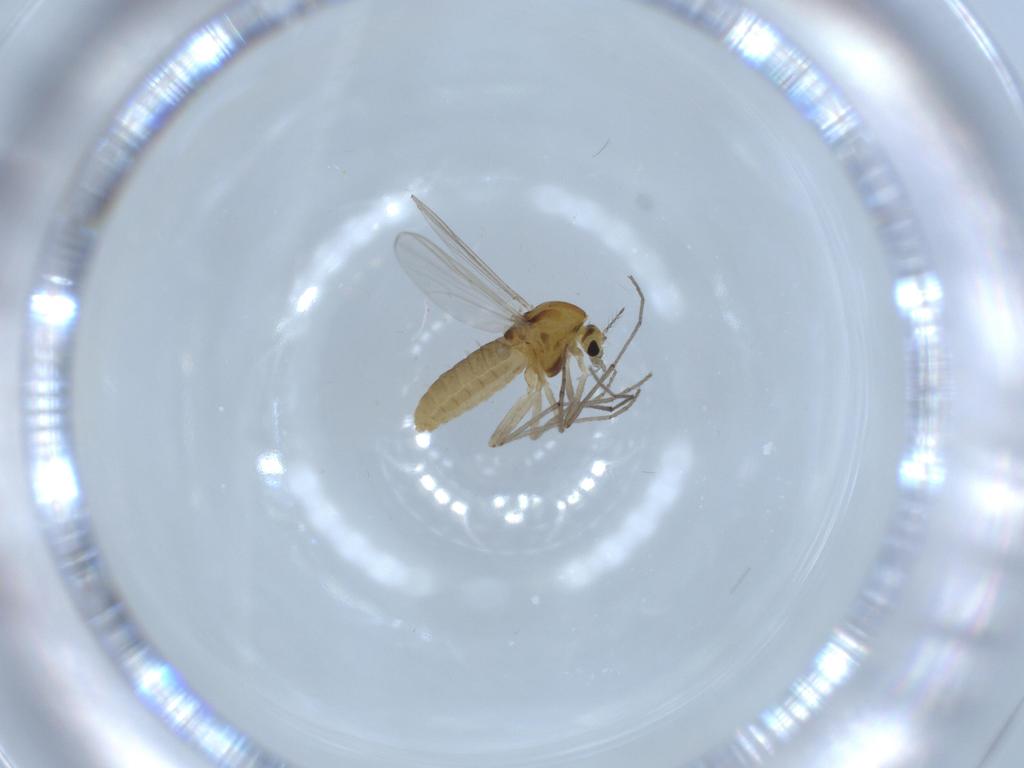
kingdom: Animalia
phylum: Arthropoda
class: Insecta
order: Diptera
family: Chironomidae
